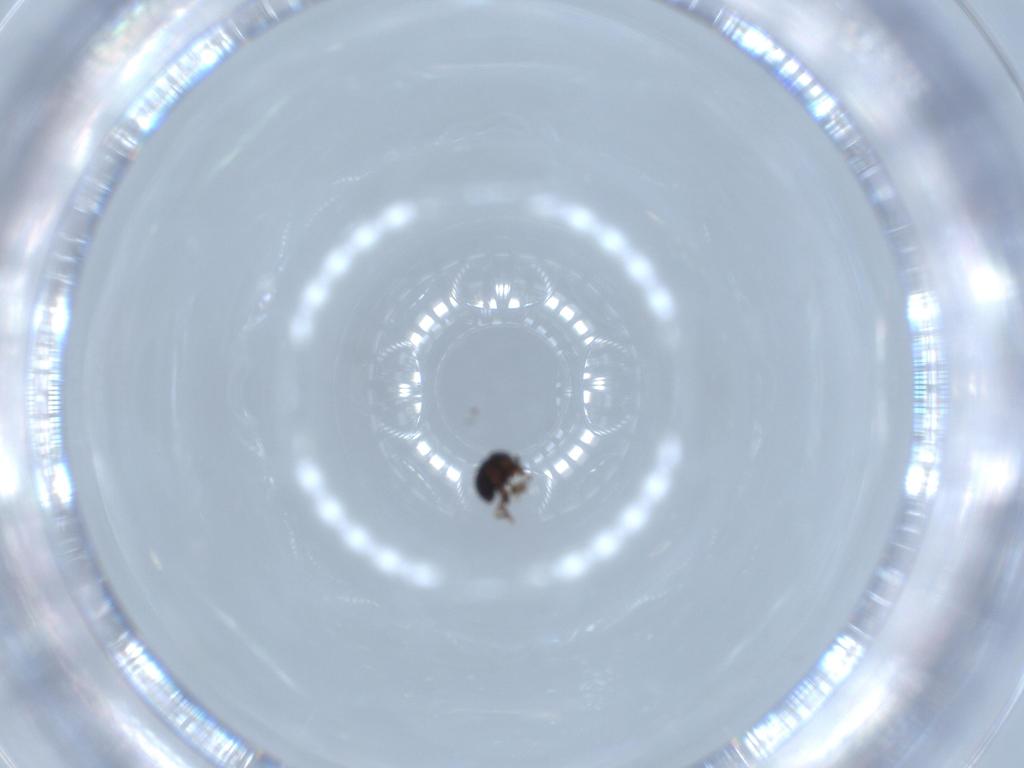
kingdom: Animalia
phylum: Arthropoda
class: Insecta
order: Hymenoptera
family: Scelionidae
